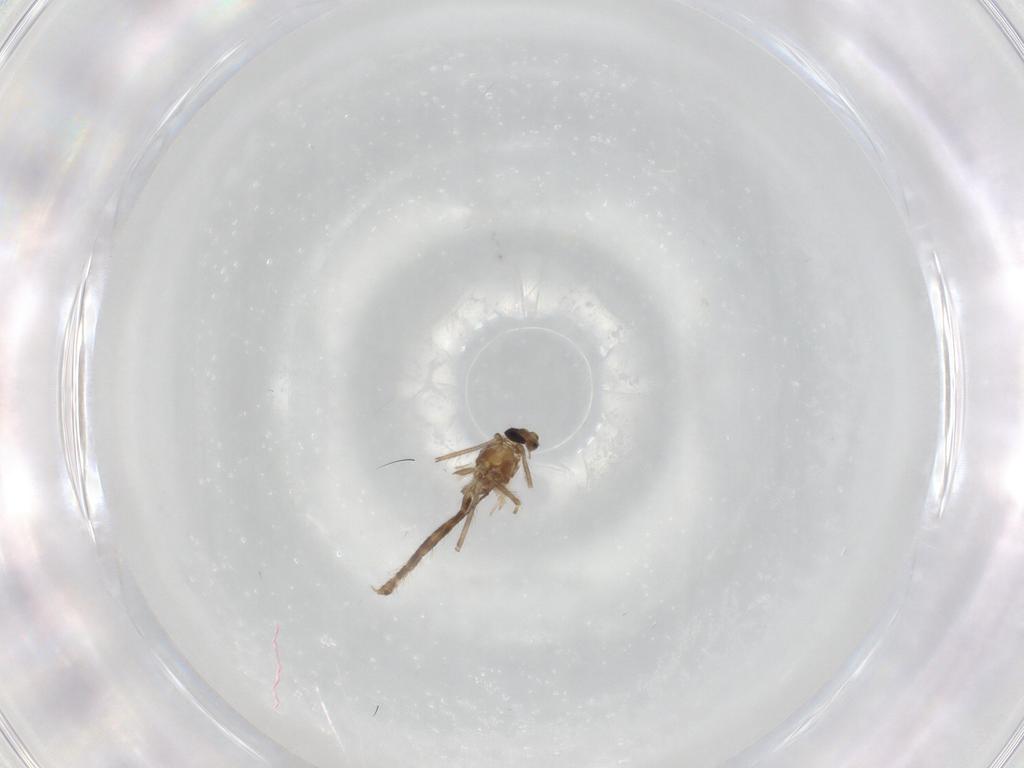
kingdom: Animalia
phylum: Arthropoda
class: Insecta
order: Diptera
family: Chironomidae
